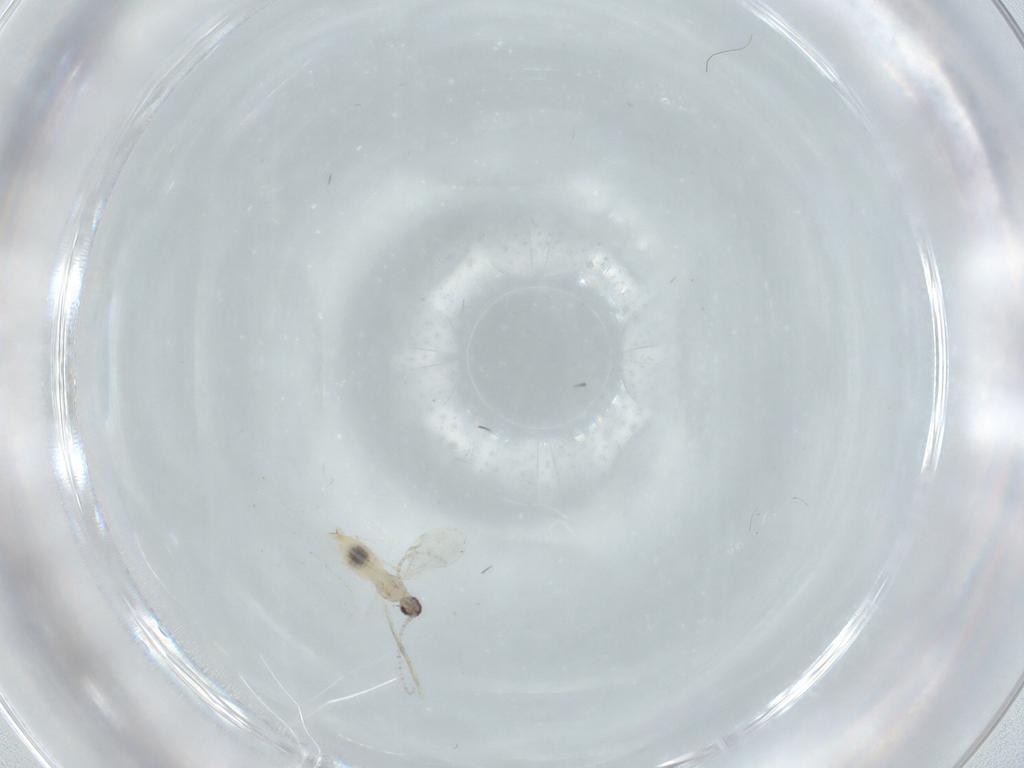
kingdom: Animalia
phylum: Arthropoda
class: Insecta
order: Diptera
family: Cecidomyiidae
